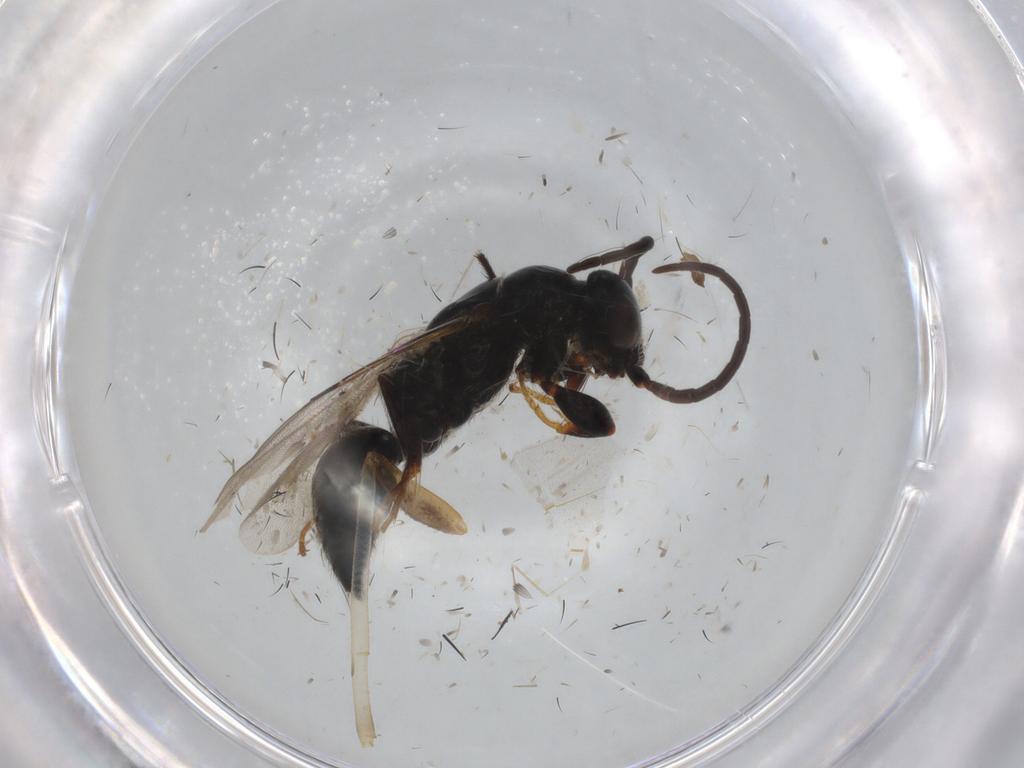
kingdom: Animalia
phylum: Arthropoda
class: Insecta
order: Hymenoptera
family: Bethylidae
